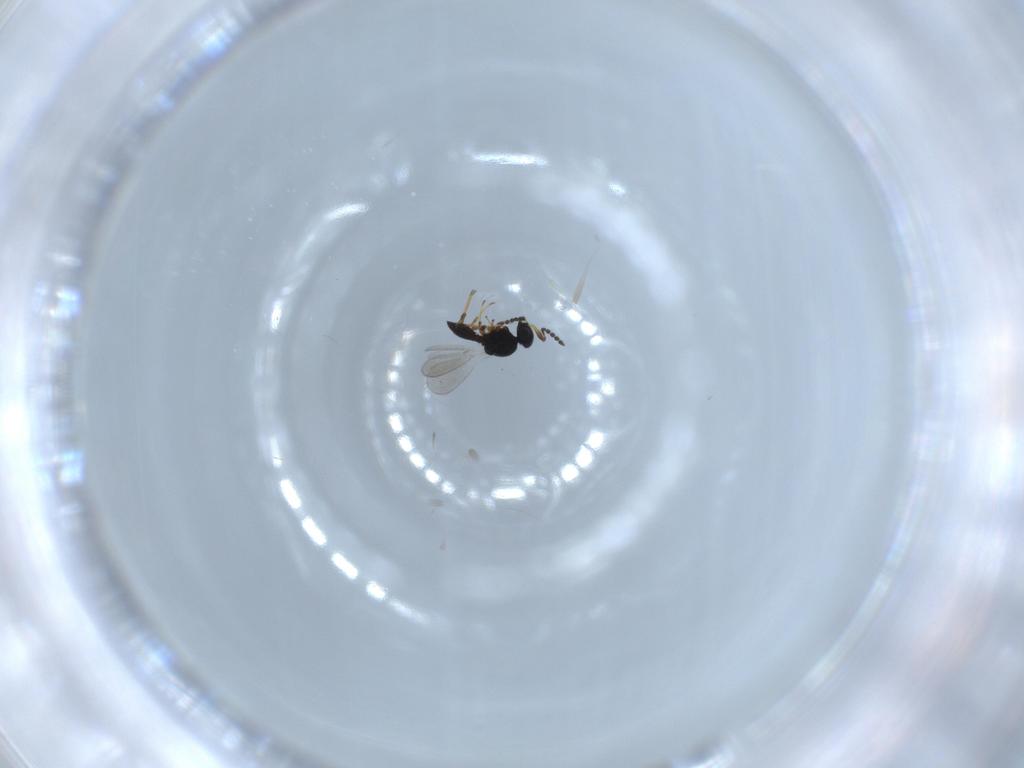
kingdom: Animalia
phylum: Arthropoda
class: Insecta
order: Hymenoptera
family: Platygastridae
